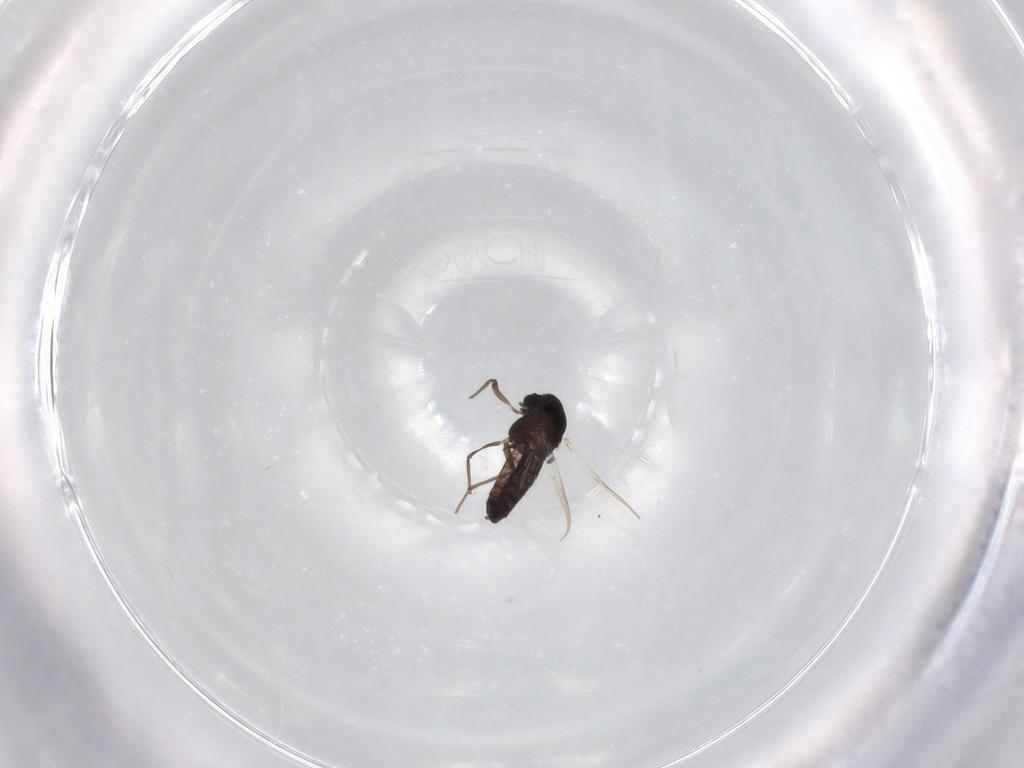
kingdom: Animalia
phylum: Arthropoda
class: Insecta
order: Diptera
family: Chironomidae
